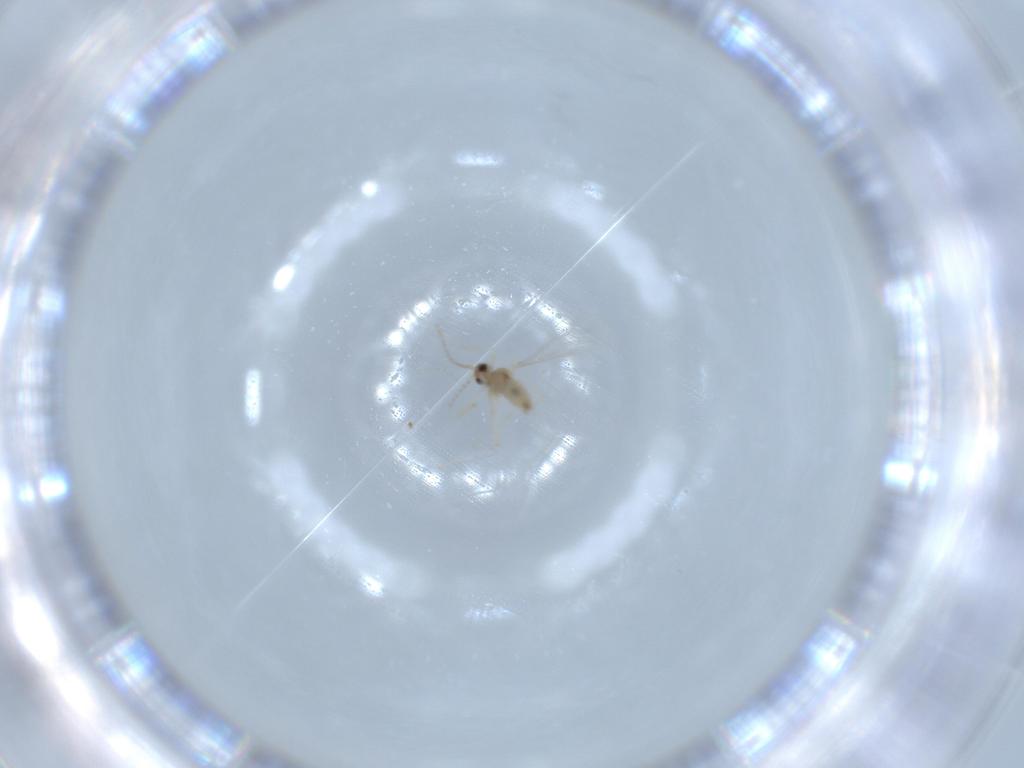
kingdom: Animalia
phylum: Arthropoda
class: Insecta
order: Diptera
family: Cecidomyiidae
